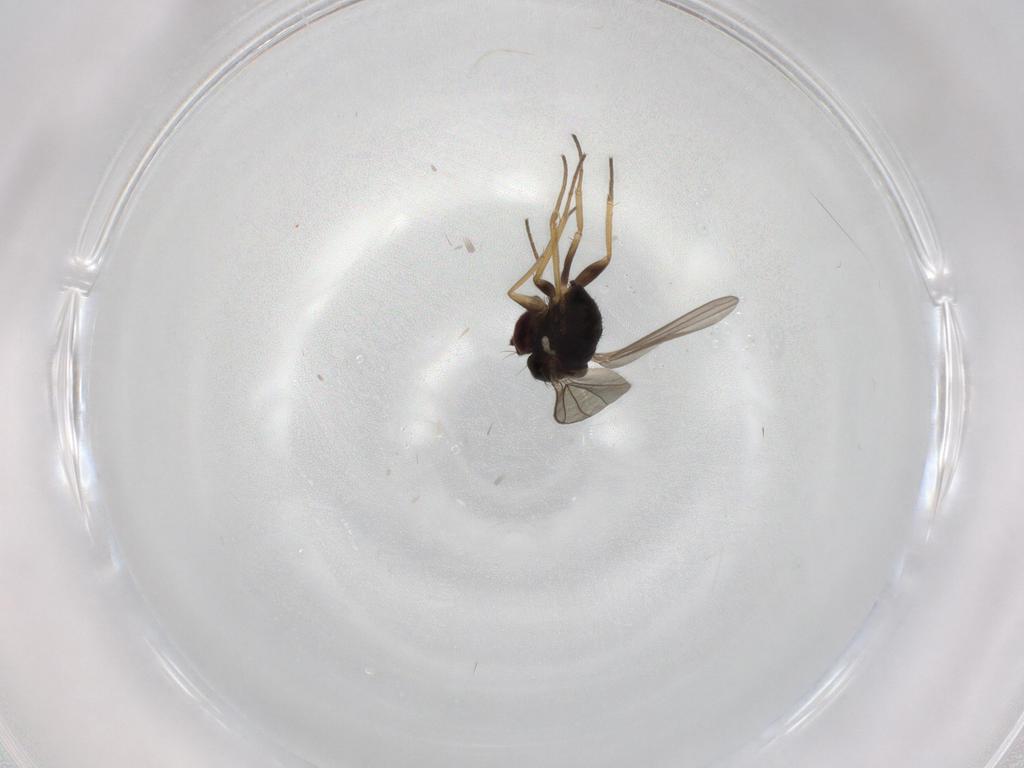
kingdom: Animalia
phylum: Arthropoda
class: Insecta
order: Diptera
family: Dolichopodidae
